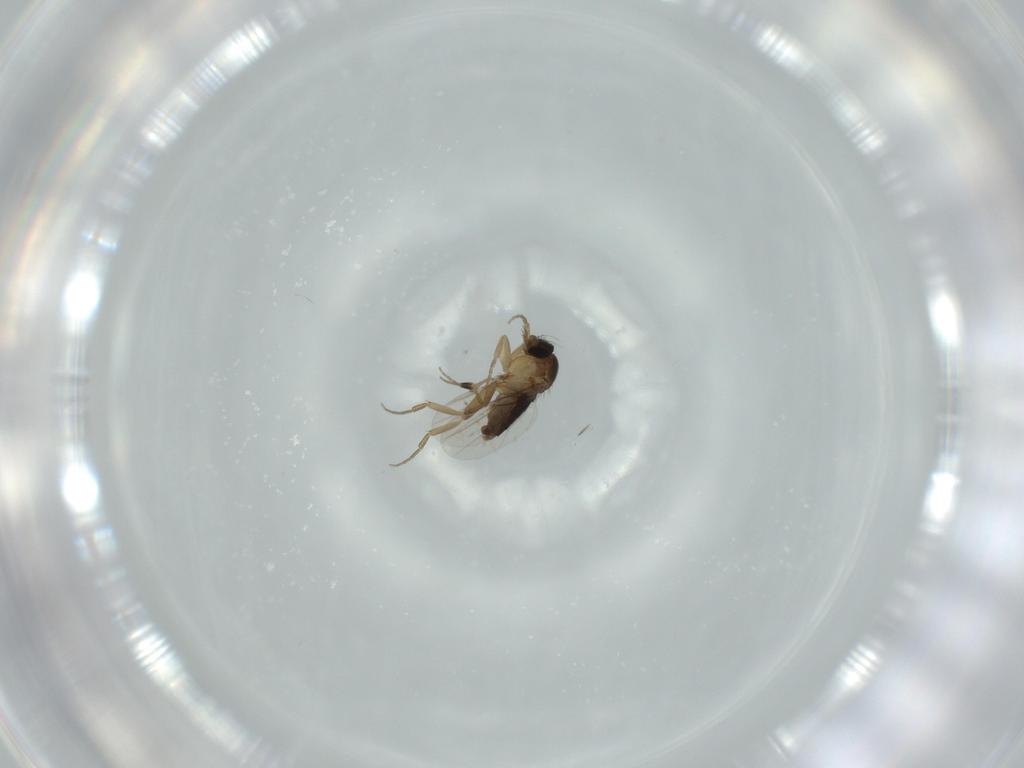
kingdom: Animalia
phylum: Arthropoda
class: Insecta
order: Diptera
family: Phoridae
